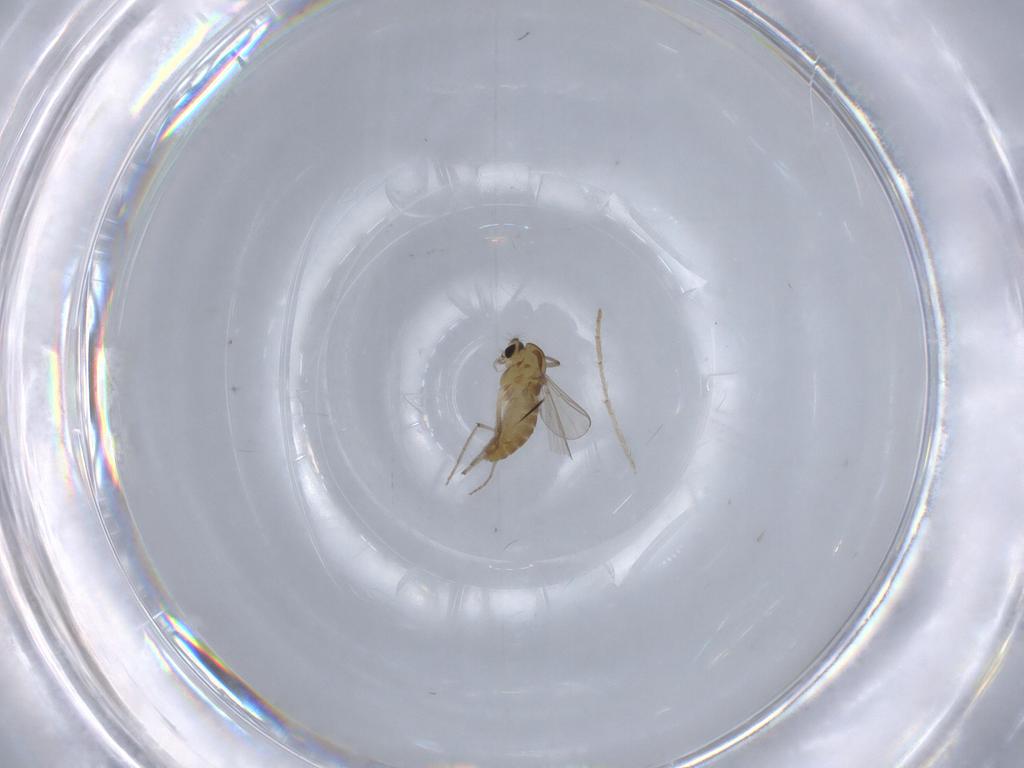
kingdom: Animalia
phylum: Arthropoda
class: Insecta
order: Diptera
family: Chironomidae
